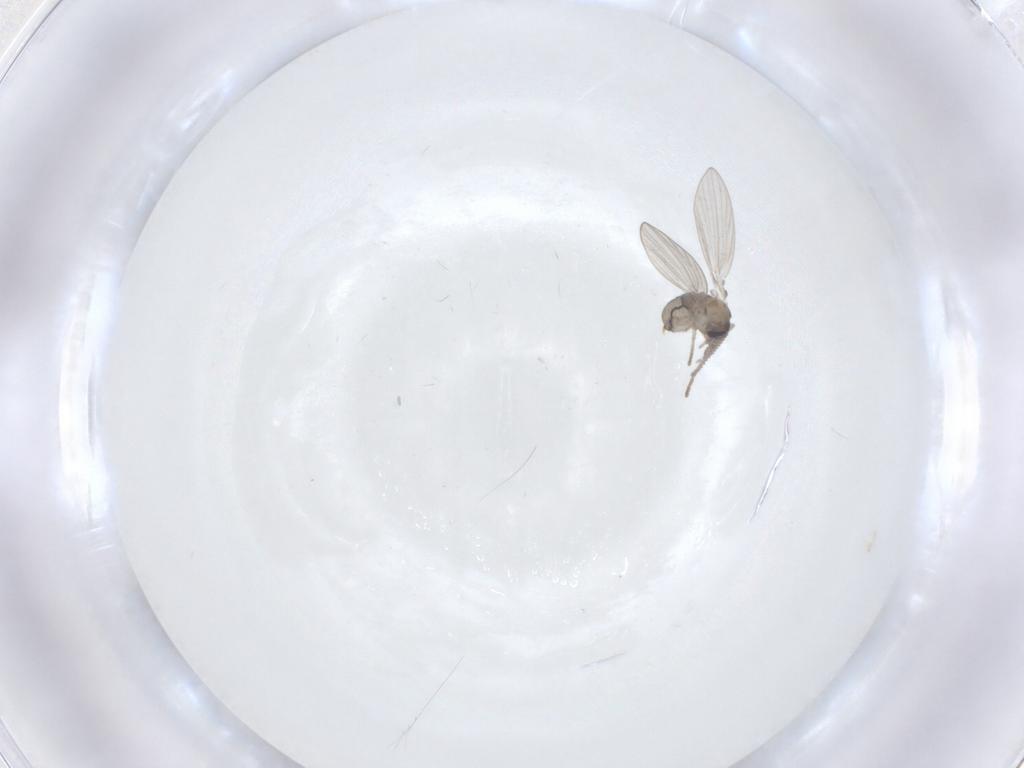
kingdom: Animalia
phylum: Arthropoda
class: Insecta
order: Diptera
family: Psychodidae
